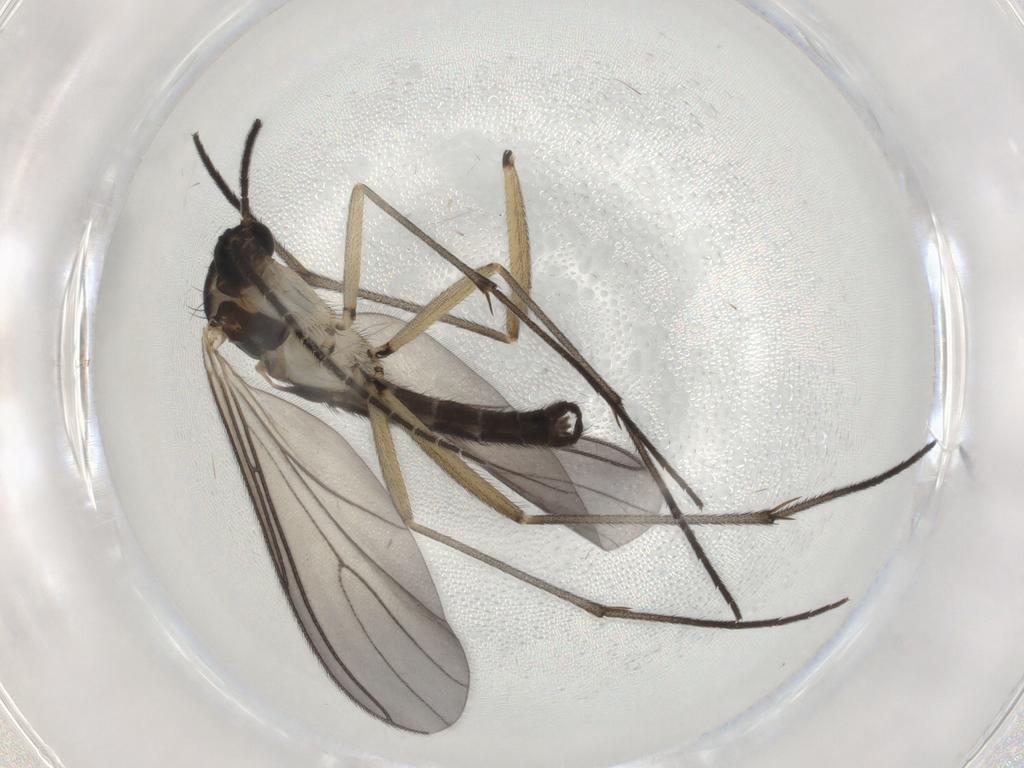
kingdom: Animalia
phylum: Arthropoda
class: Insecta
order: Diptera
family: Sciaridae
